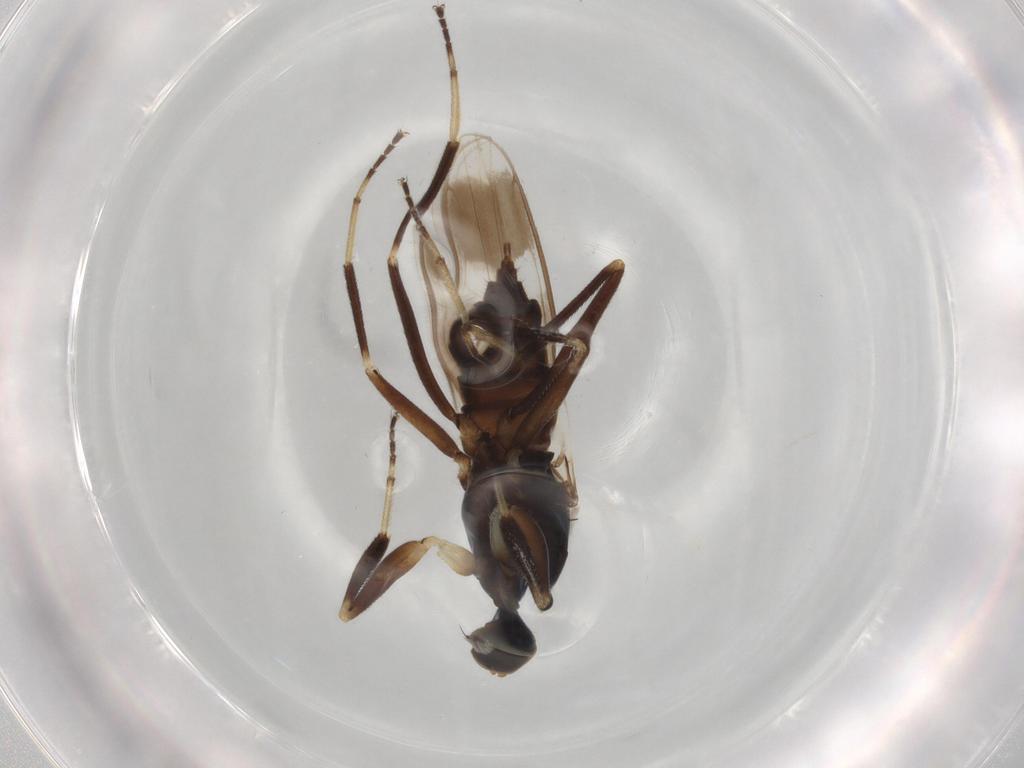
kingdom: Animalia
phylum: Arthropoda
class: Insecta
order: Diptera
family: Hybotidae
